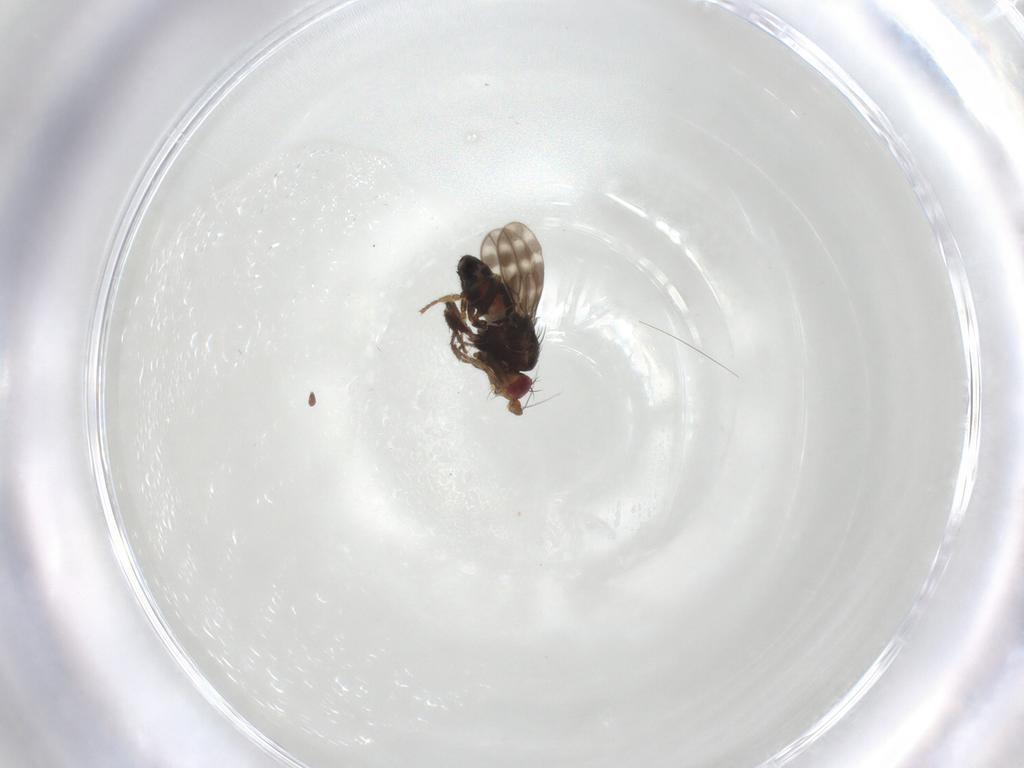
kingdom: Animalia
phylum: Arthropoda
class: Insecta
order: Diptera
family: Sphaeroceridae
